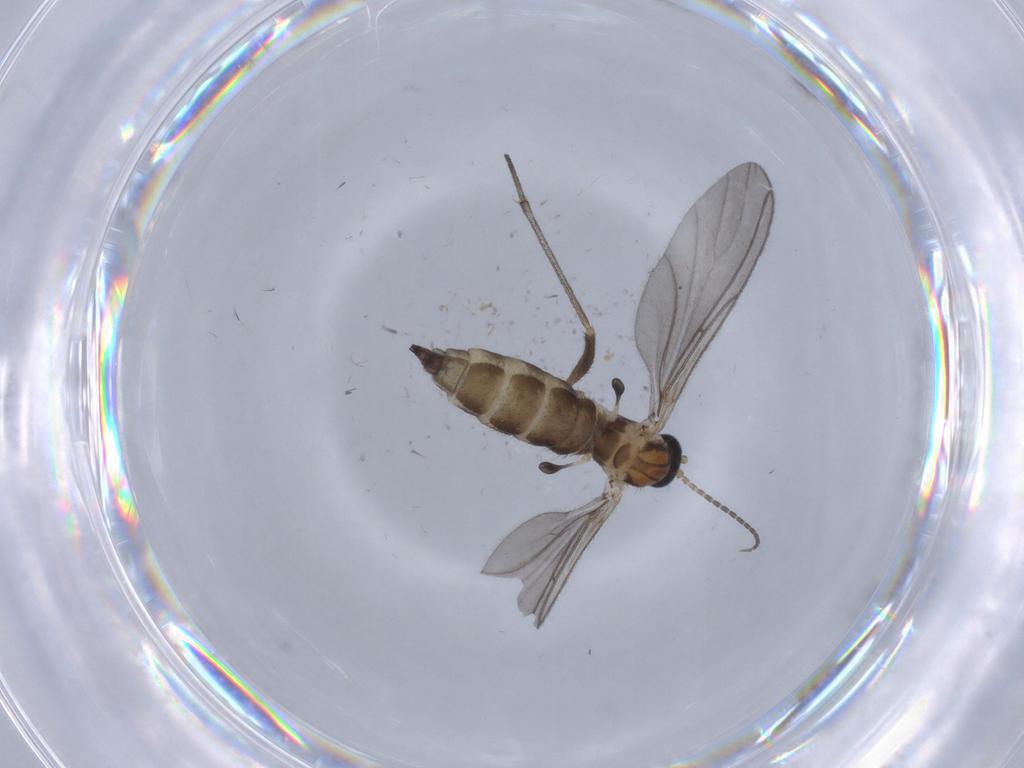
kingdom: Animalia
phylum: Arthropoda
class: Insecta
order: Diptera
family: Sciaridae
